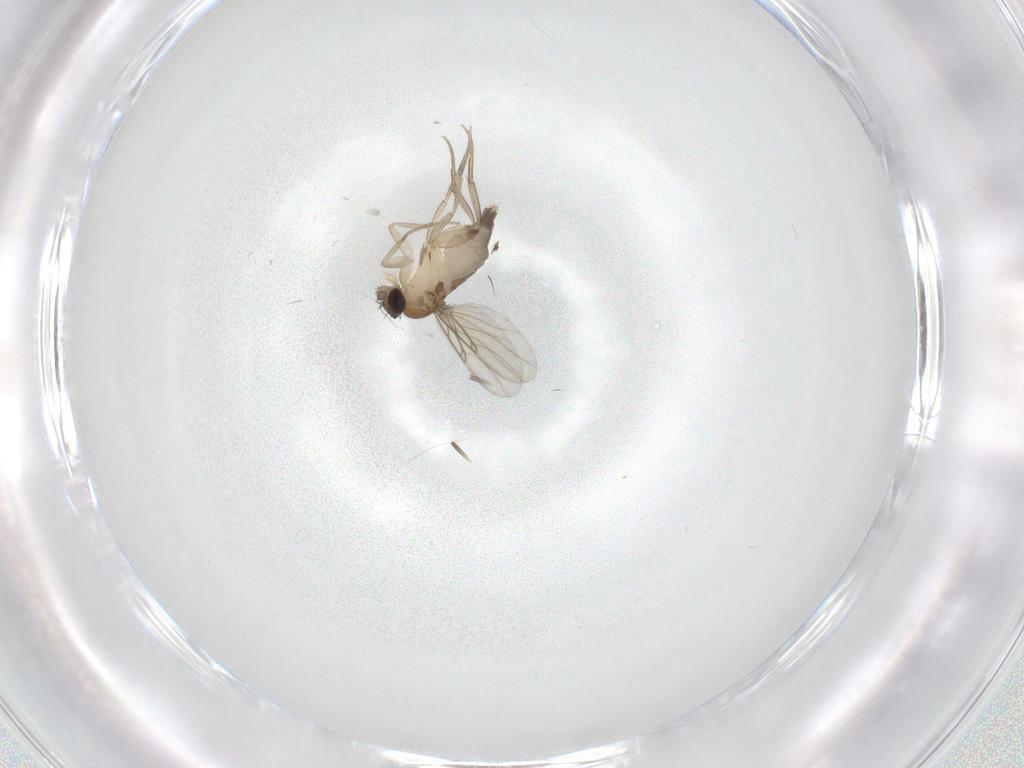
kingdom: Animalia
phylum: Arthropoda
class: Insecta
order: Diptera
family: Phoridae
